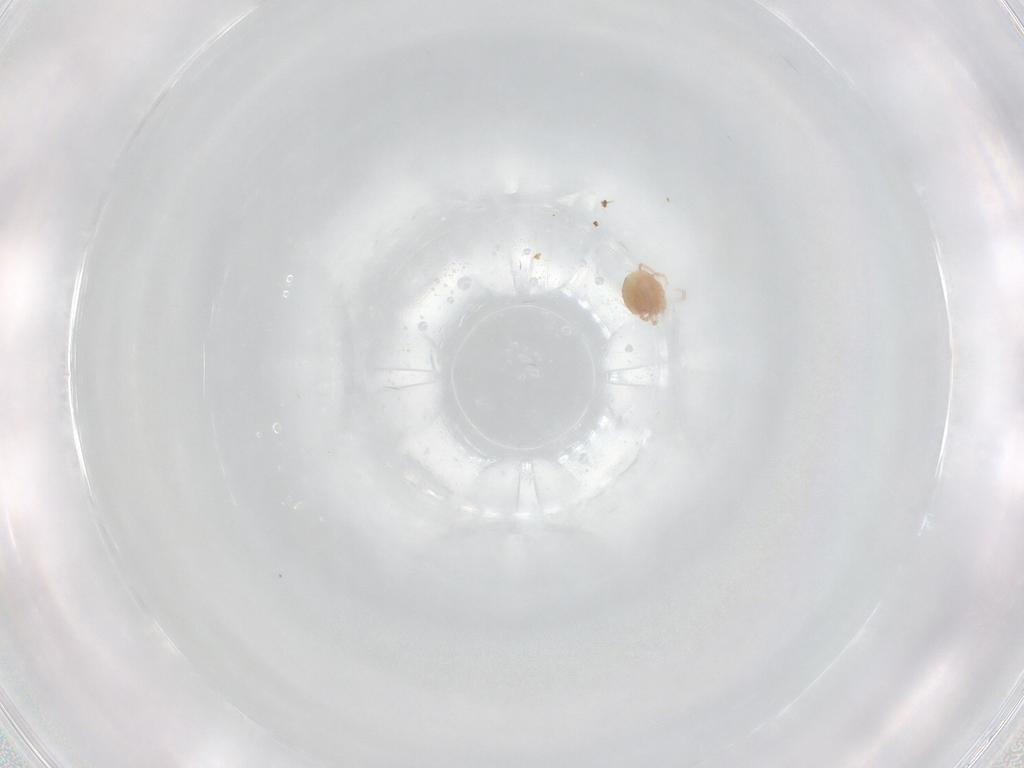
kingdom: Animalia
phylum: Arthropoda
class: Arachnida
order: Trombidiformes
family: Lebertiidae
